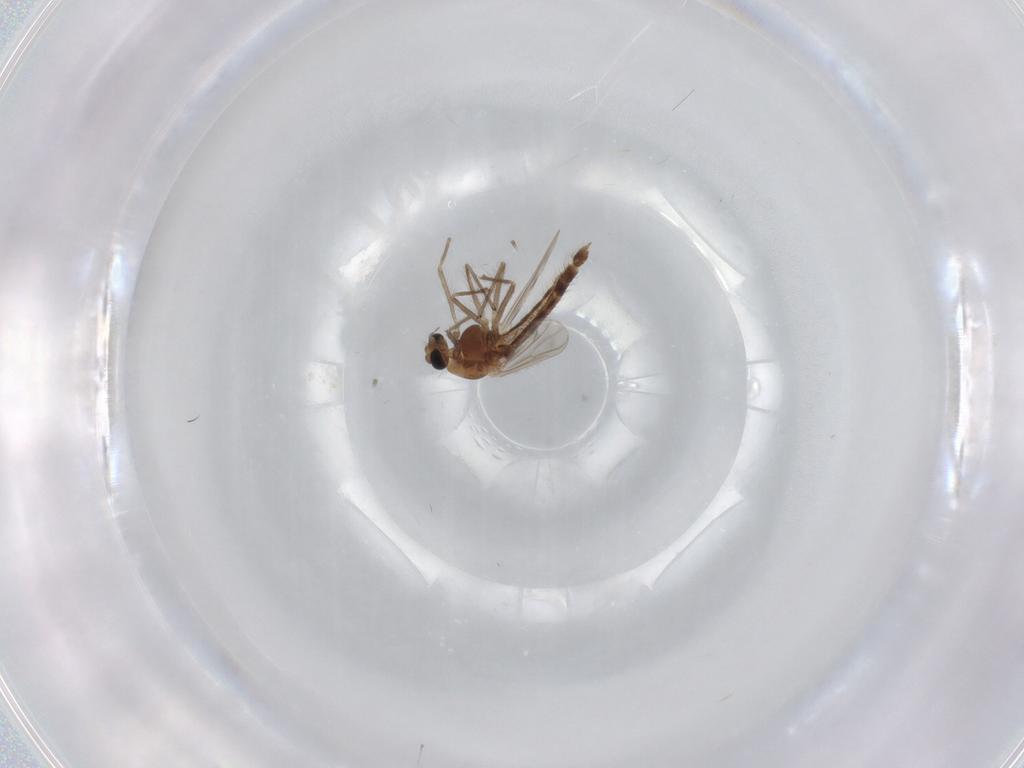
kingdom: Animalia
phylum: Arthropoda
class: Insecta
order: Diptera
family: Chironomidae
